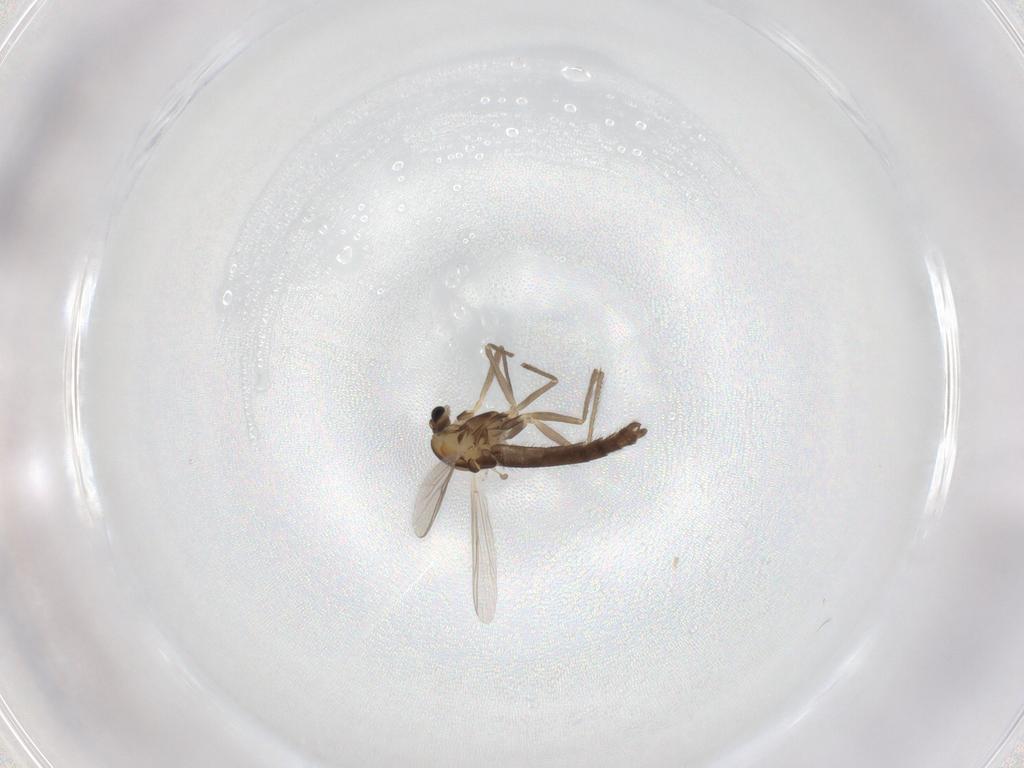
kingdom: Animalia
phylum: Arthropoda
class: Insecta
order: Diptera
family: Chironomidae
